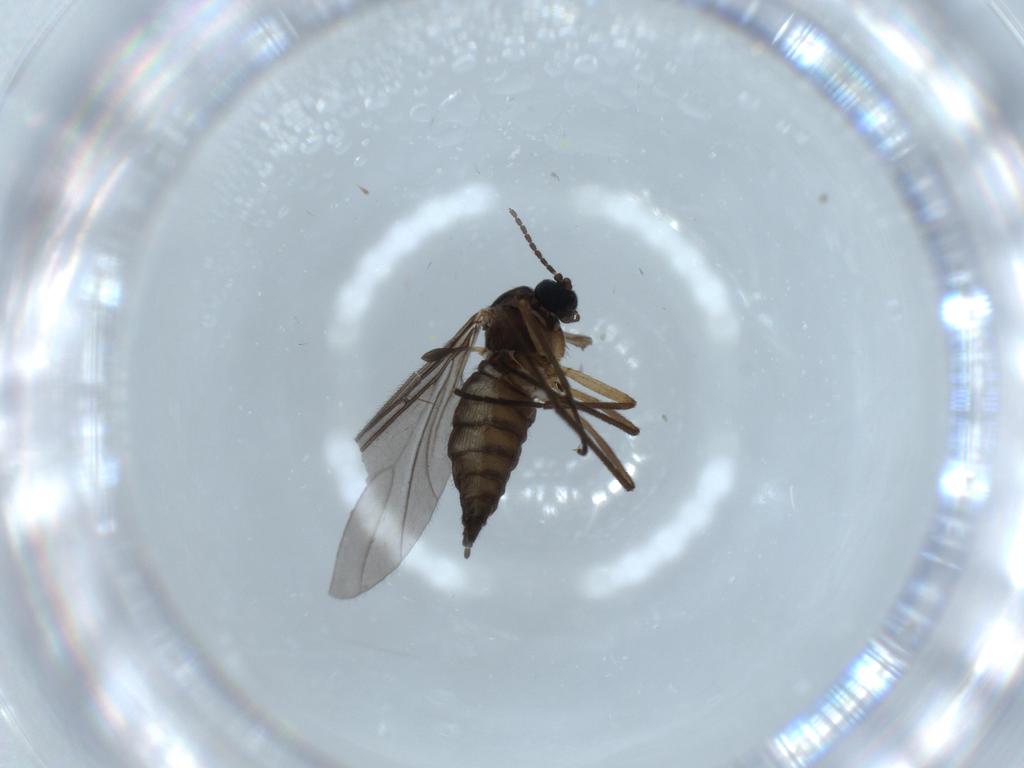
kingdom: Animalia
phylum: Arthropoda
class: Insecta
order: Diptera
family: Sciaridae
